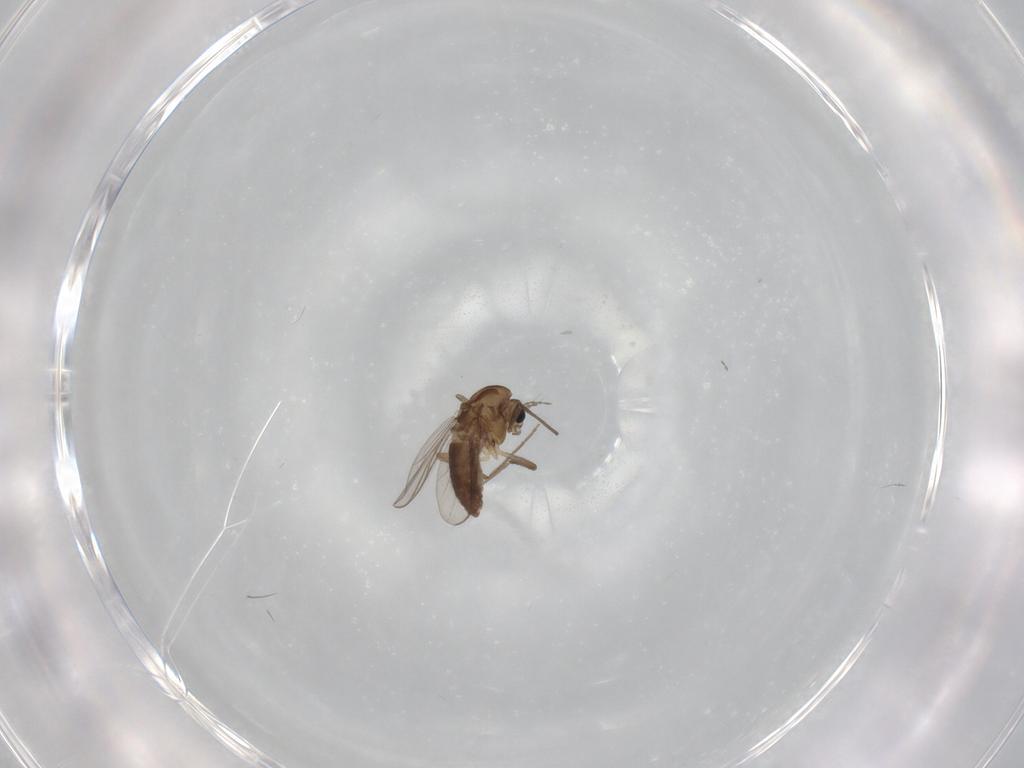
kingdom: Animalia
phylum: Arthropoda
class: Insecta
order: Diptera
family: Chironomidae
